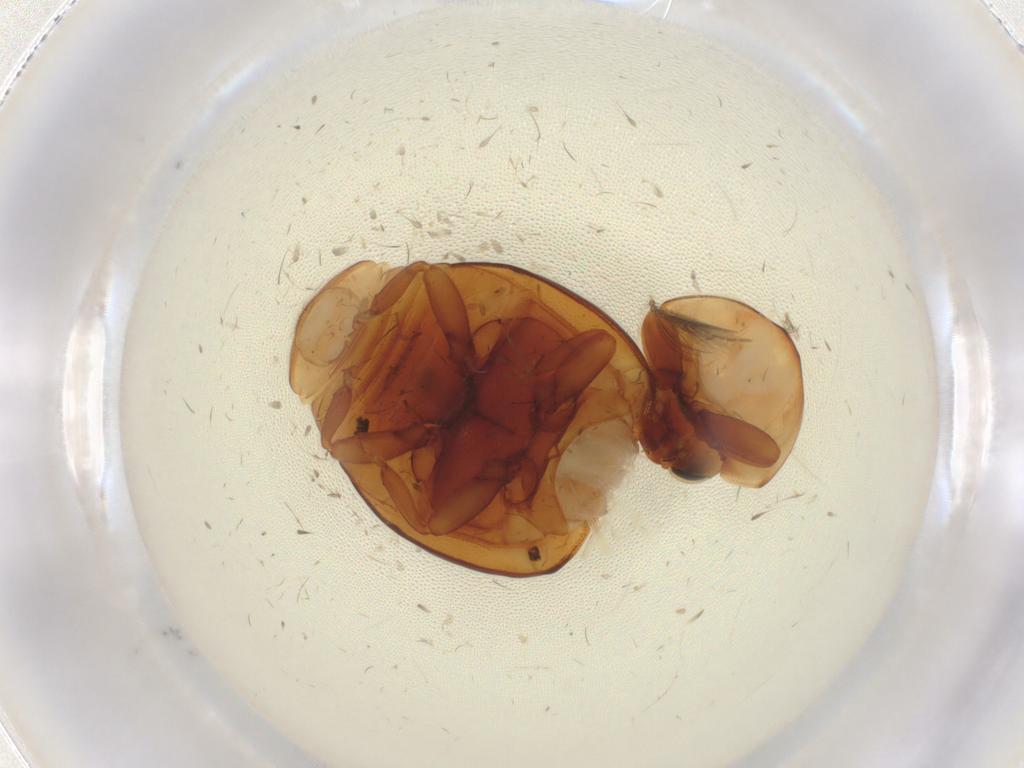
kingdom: Animalia
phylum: Arthropoda
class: Insecta
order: Coleoptera
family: Coccinellidae
